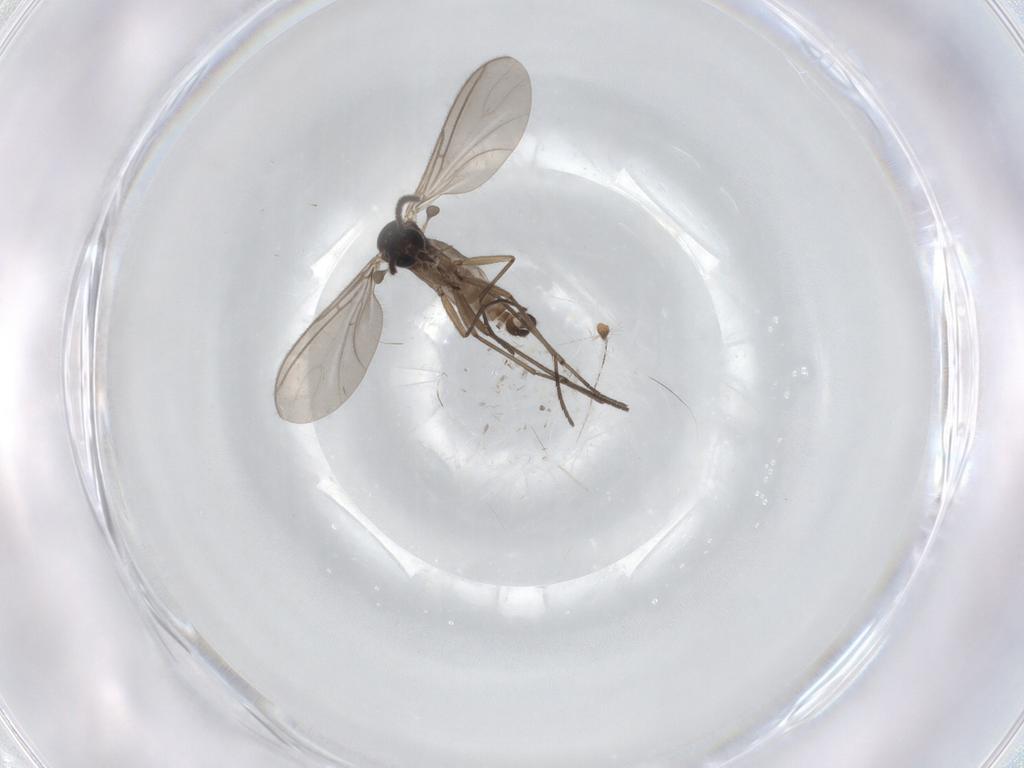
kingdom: Animalia
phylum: Arthropoda
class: Insecta
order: Diptera
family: Sciaridae
